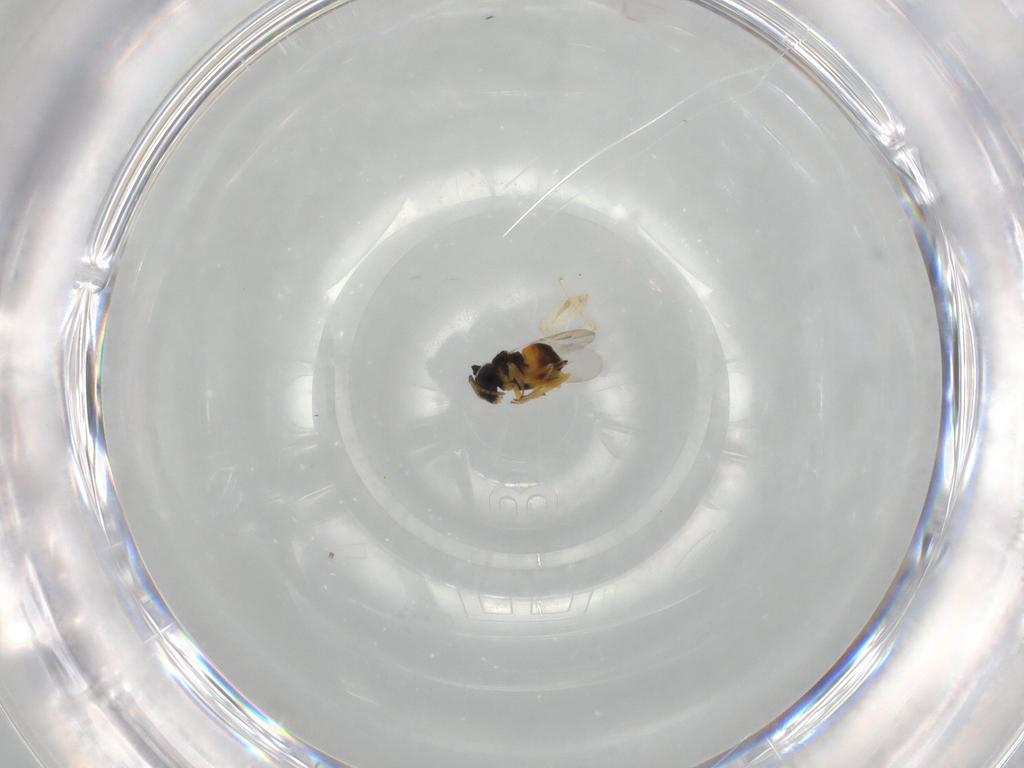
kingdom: Animalia
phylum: Arthropoda
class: Insecta
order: Hymenoptera
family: Encyrtidae
